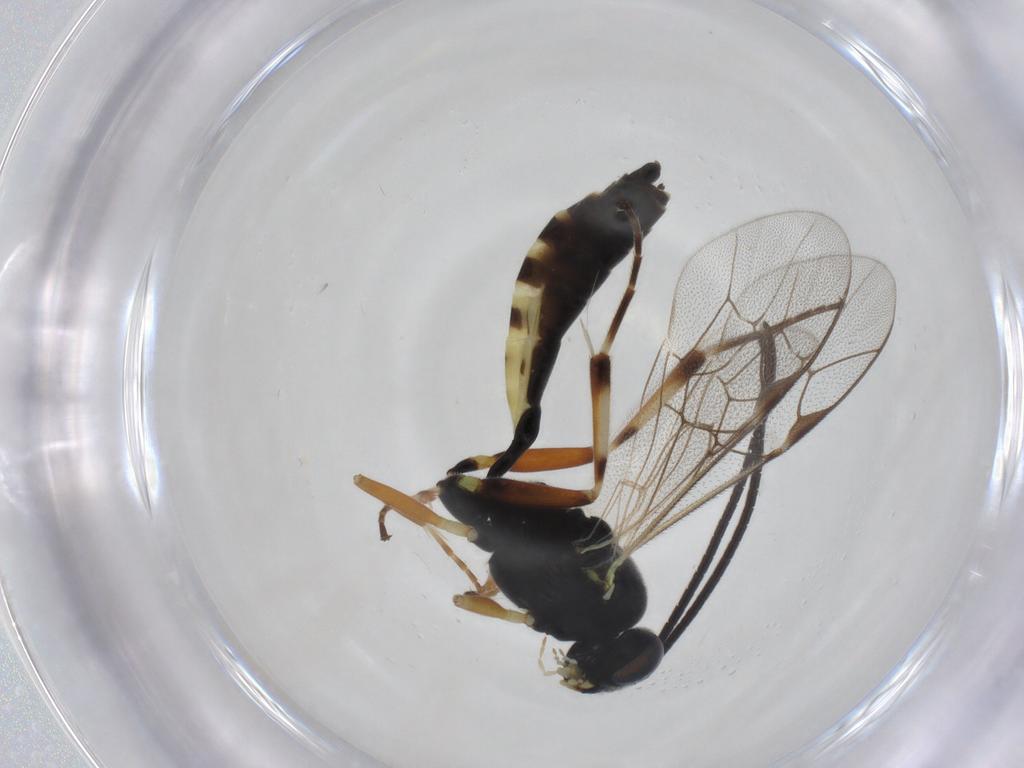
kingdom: Animalia
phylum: Arthropoda
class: Insecta
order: Hymenoptera
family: Ichneumonidae
